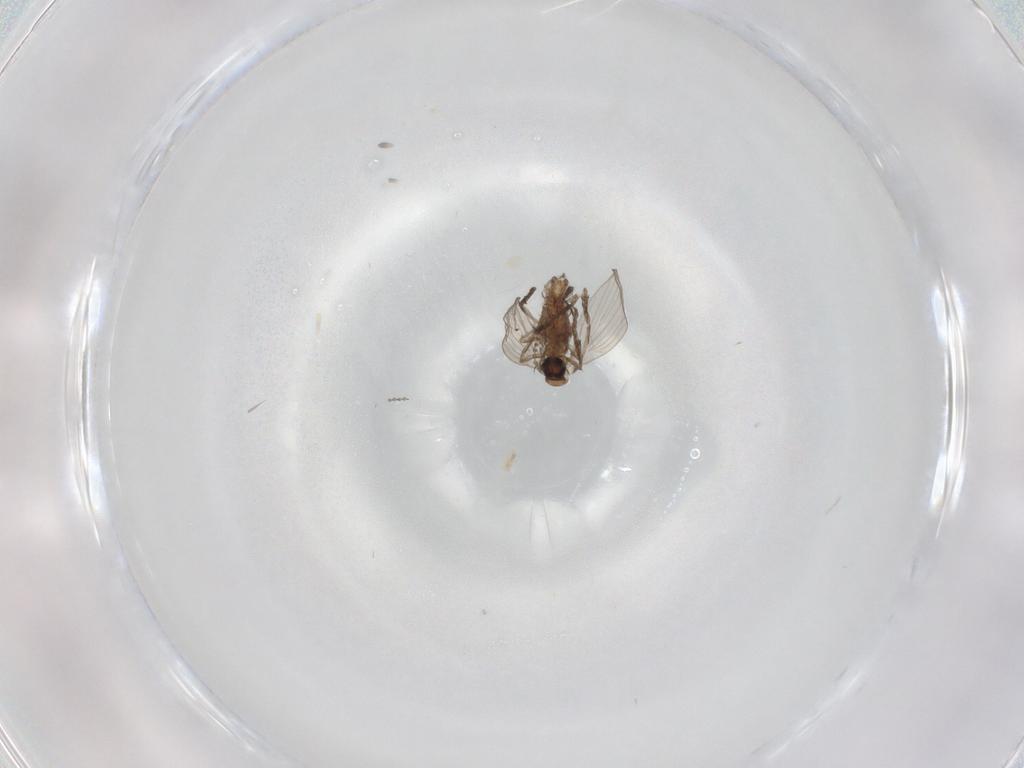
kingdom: Animalia
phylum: Arthropoda
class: Insecta
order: Diptera
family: Psychodidae
